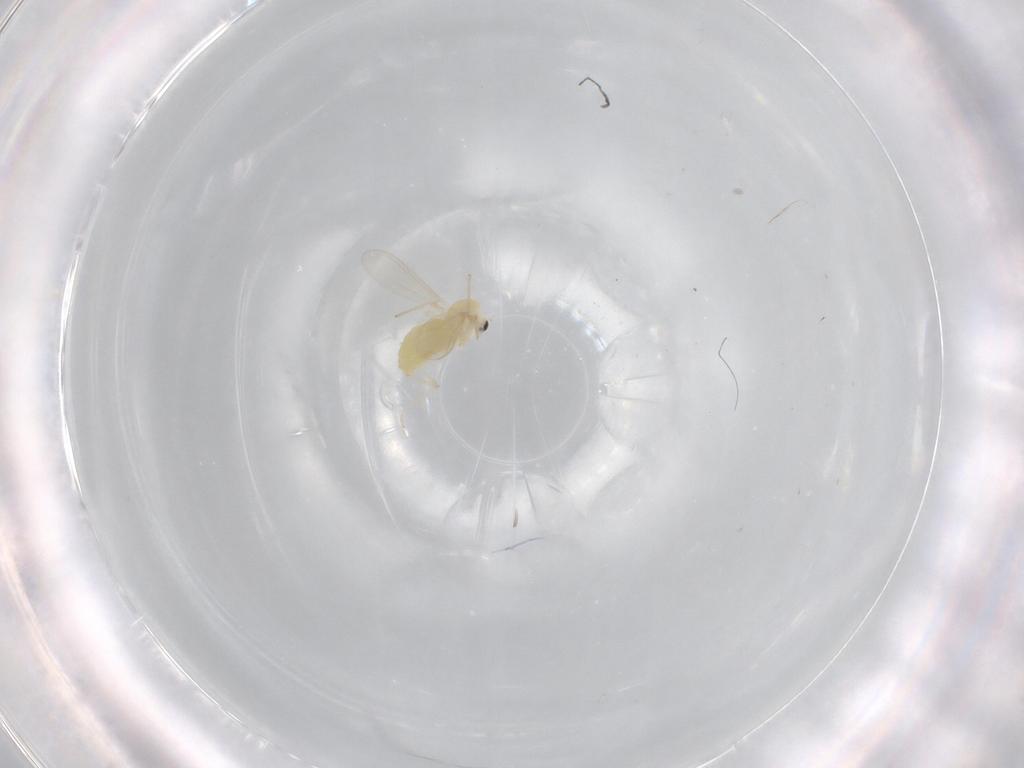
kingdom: Animalia
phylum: Arthropoda
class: Insecta
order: Diptera
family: Chironomidae
